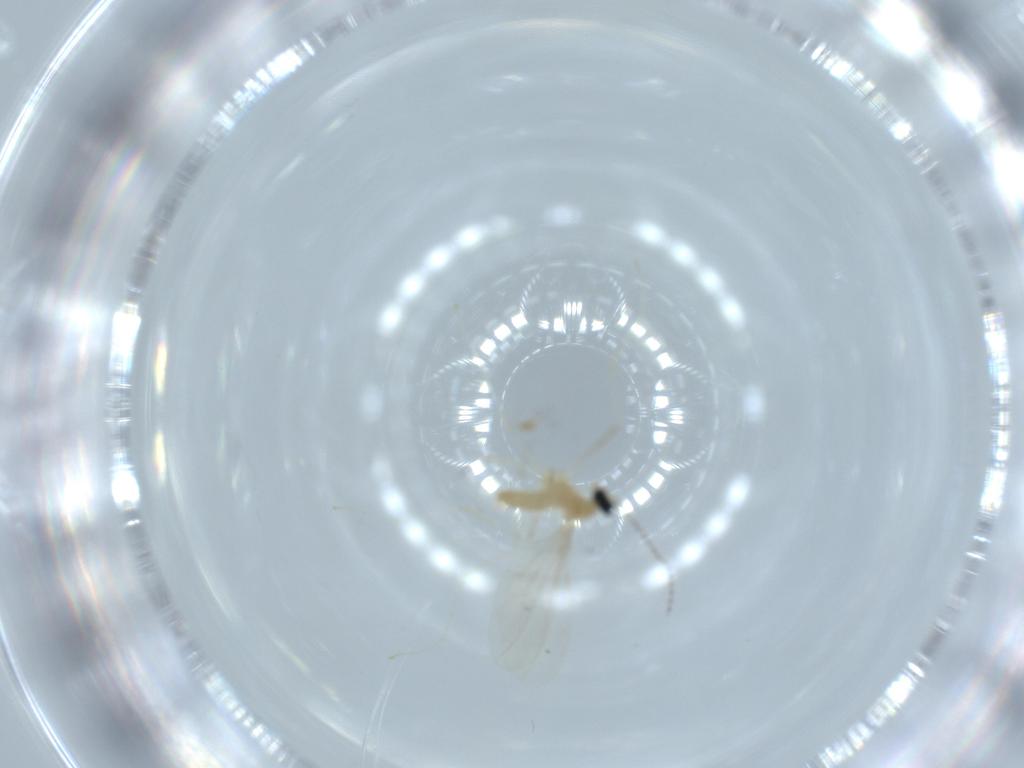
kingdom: Animalia
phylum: Arthropoda
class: Insecta
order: Diptera
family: Cecidomyiidae
